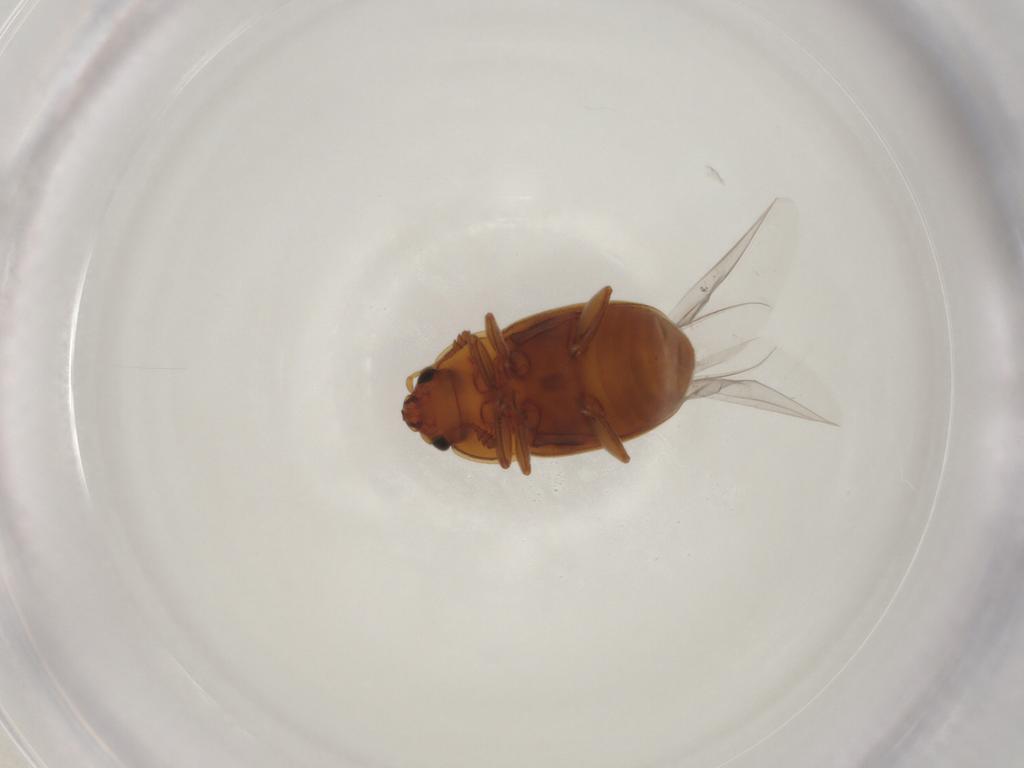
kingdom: Animalia
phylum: Arthropoda
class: Insecta
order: Coleoptera
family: Nitidulidae
